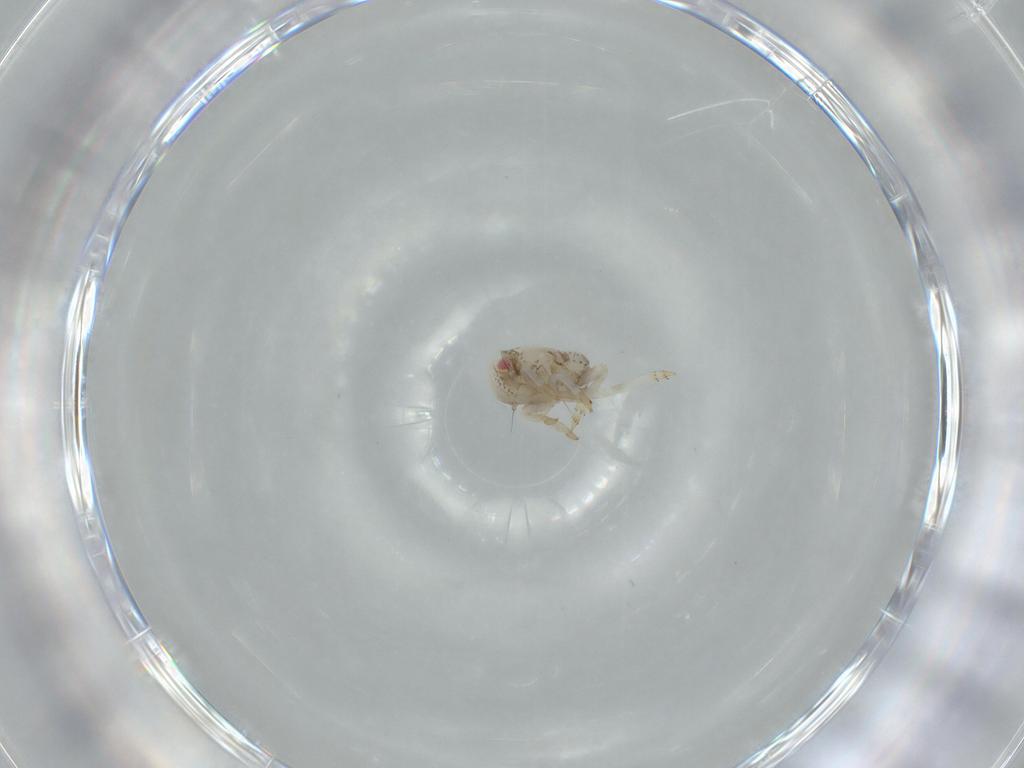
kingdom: Animalia
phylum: Arthropoda
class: Insecta
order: Hemiptera
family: Acanaloniidae
